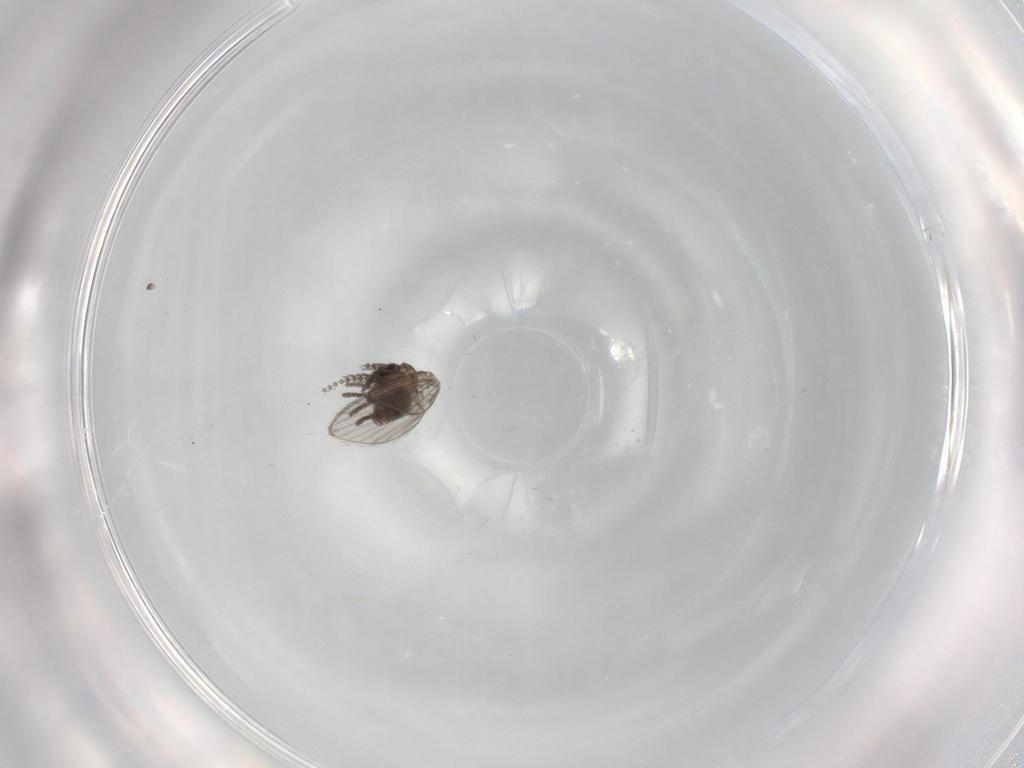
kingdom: Animalia
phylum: Arthropoda
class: Insecta
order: Diptera
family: Psychodidae
